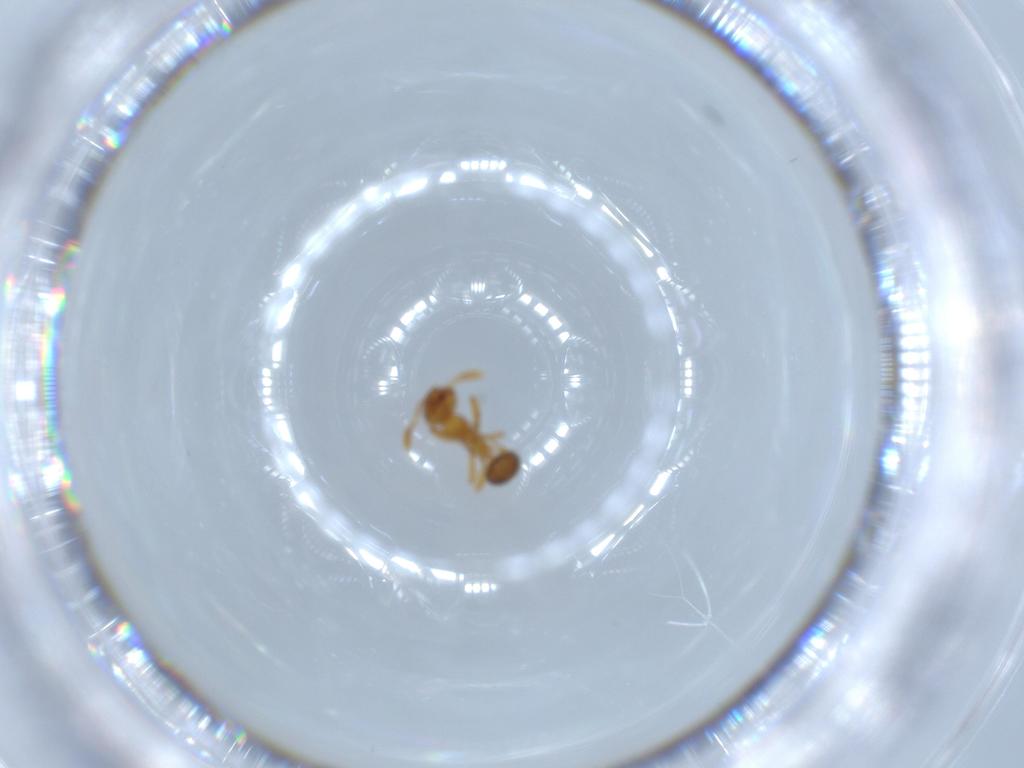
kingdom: Animalia
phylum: Arthropoda
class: Insecta
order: Hymenoptera
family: Formicidae
